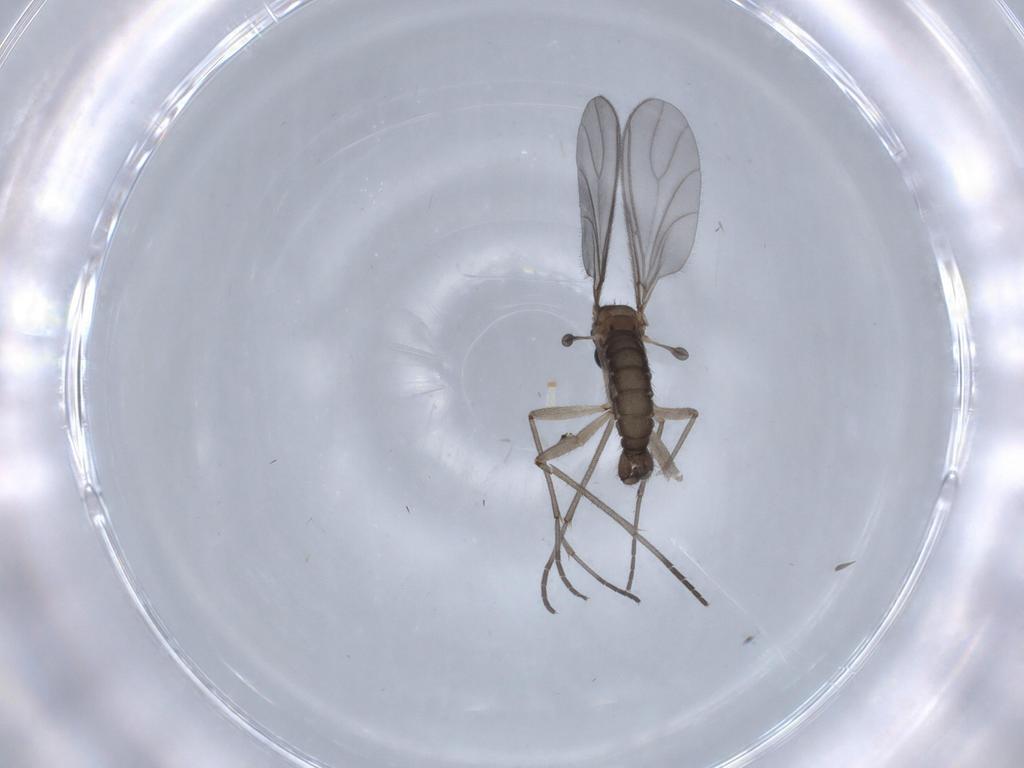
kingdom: Animalia
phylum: Arthropoda
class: Insecta
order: Diptera
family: Sciaridae
